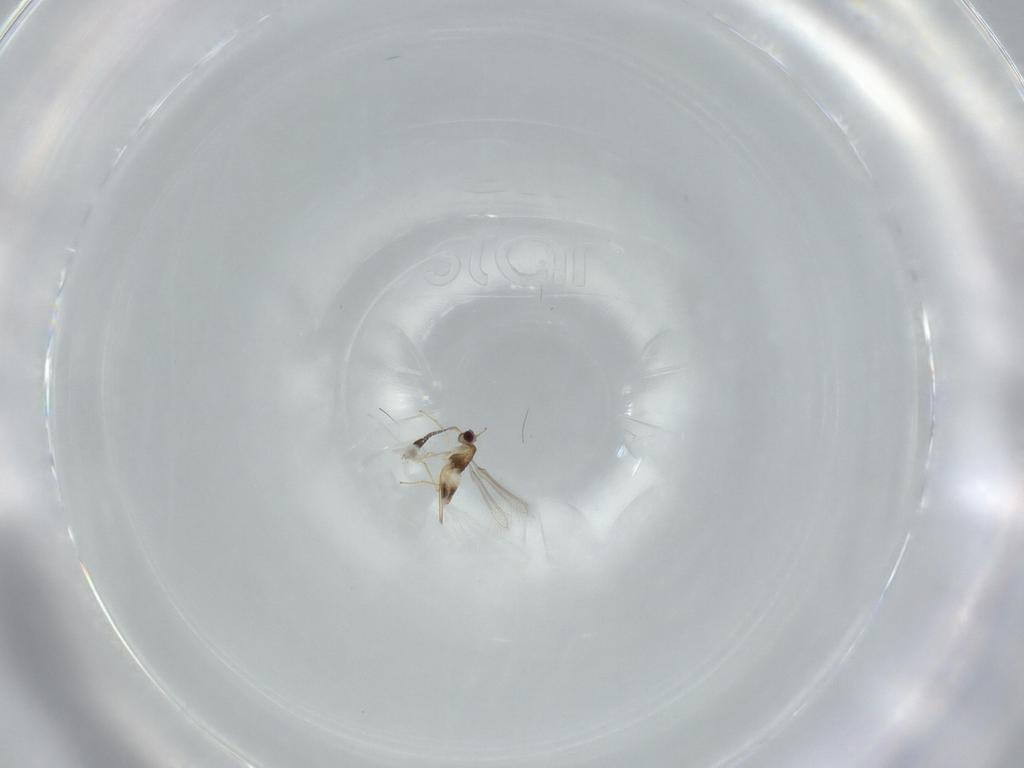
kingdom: Animalia
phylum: Arthropoda
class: Insecta
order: Hymenoptera
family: Mymaridae
